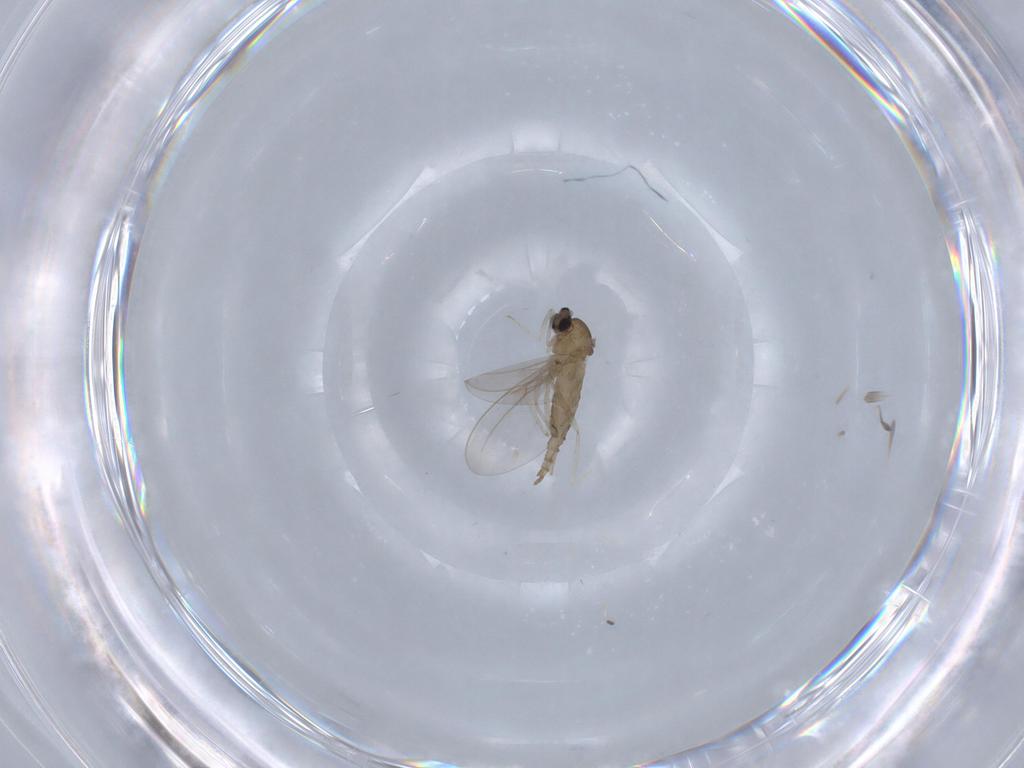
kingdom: Animalia
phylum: Arthropoda
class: Insecta
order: Diptera
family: Cecidomyiidae
